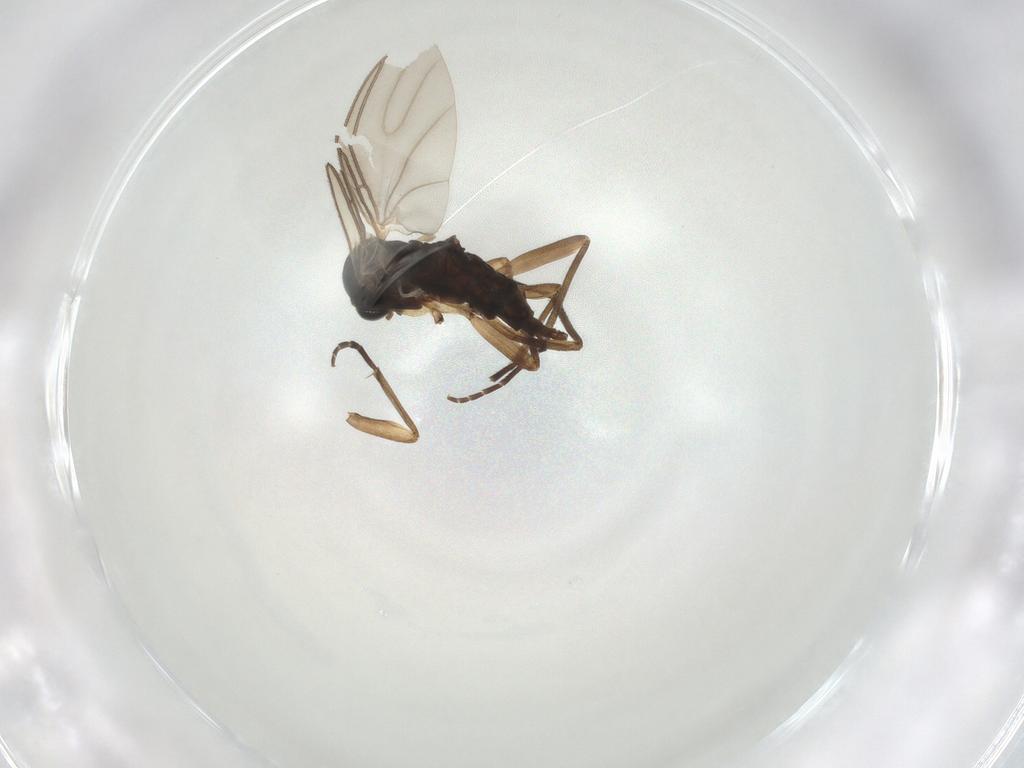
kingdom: Animalia
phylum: Arthropoda
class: Insecta
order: Diptera
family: Sciaridae
